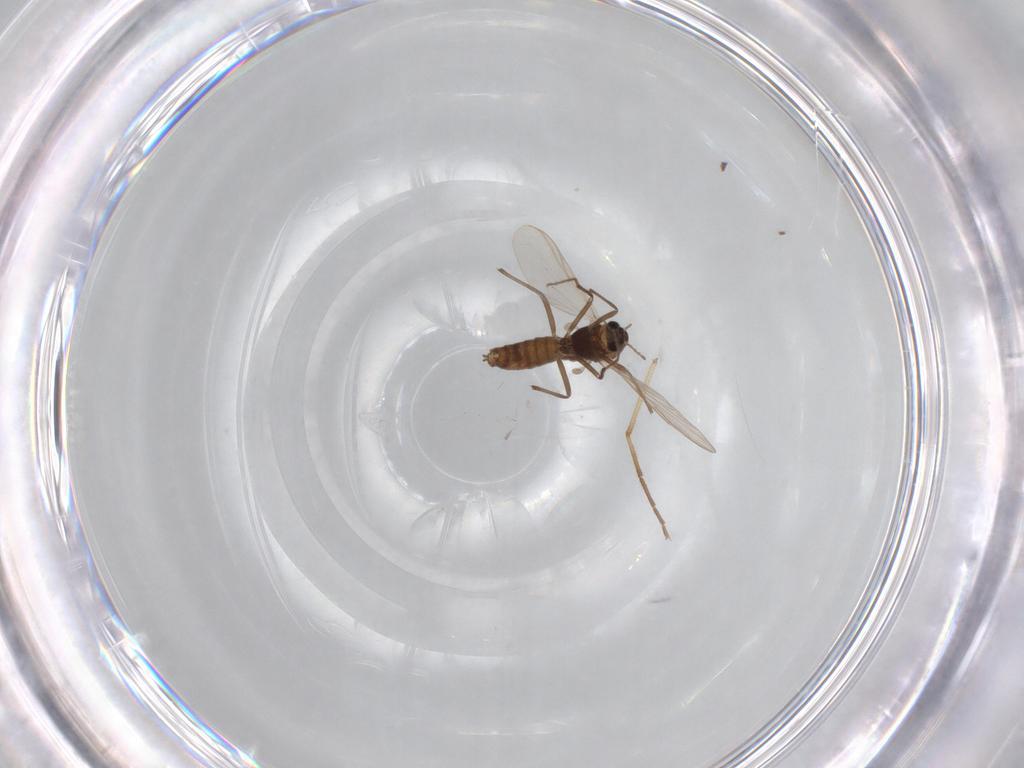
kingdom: Animalia
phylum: Arthropoda
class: Insecta
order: Diptera
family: Chironomidae
